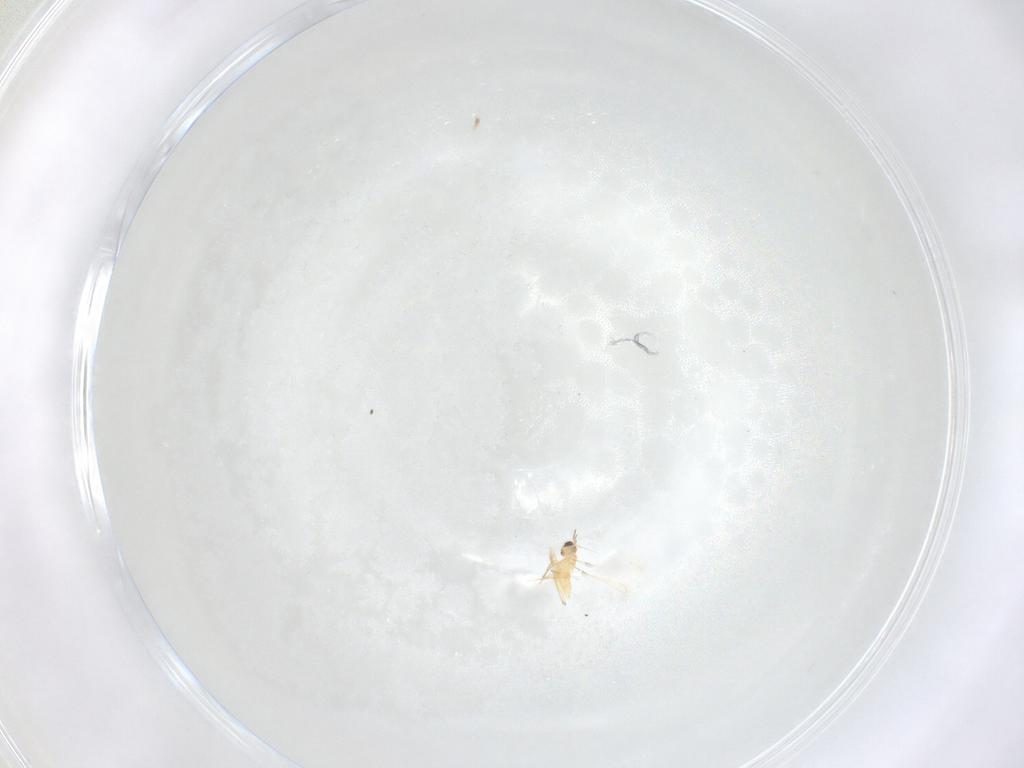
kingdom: Animalia
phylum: Arthropoda
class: Insecta
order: Hymenoptera
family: Mymaridae
